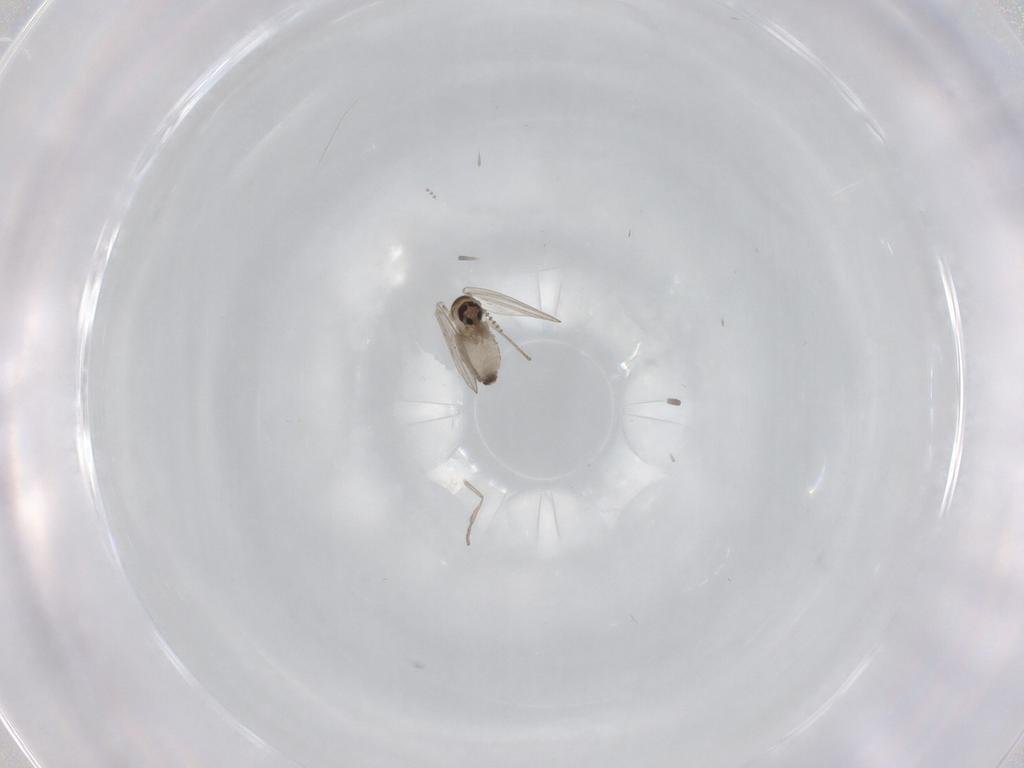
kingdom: Animalia
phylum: Arthropoda
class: Insecta
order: Diptera
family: Psychodidae
